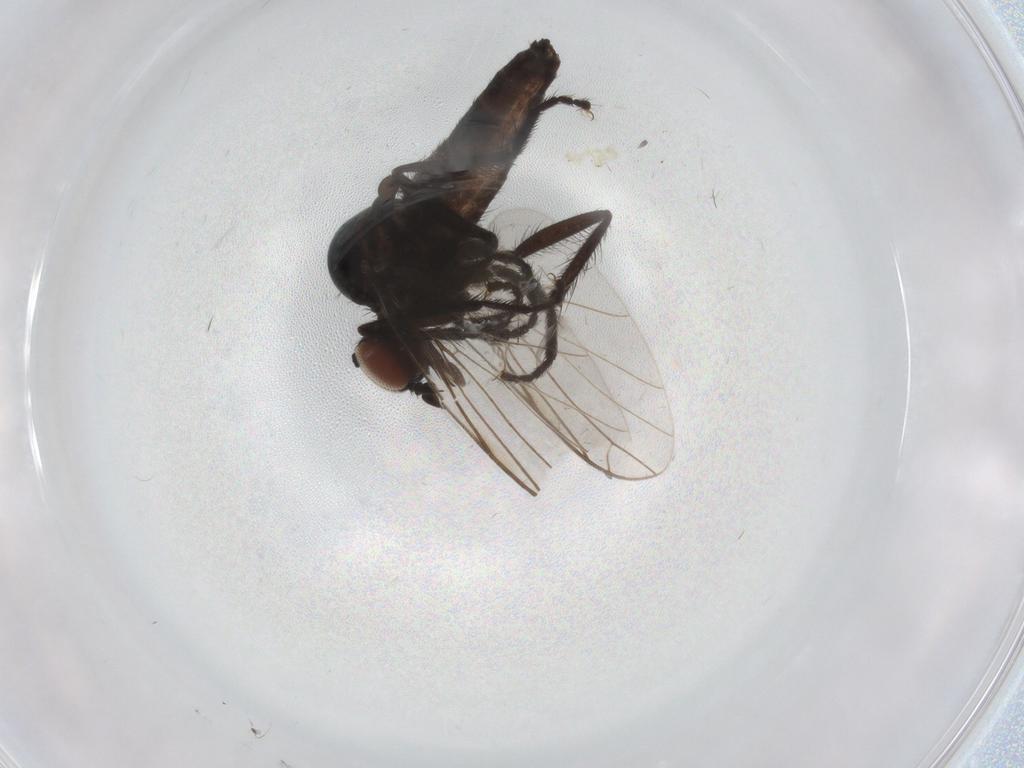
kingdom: Animalia
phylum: Arthropoda
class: Insecta
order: Diptera
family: Empididae
